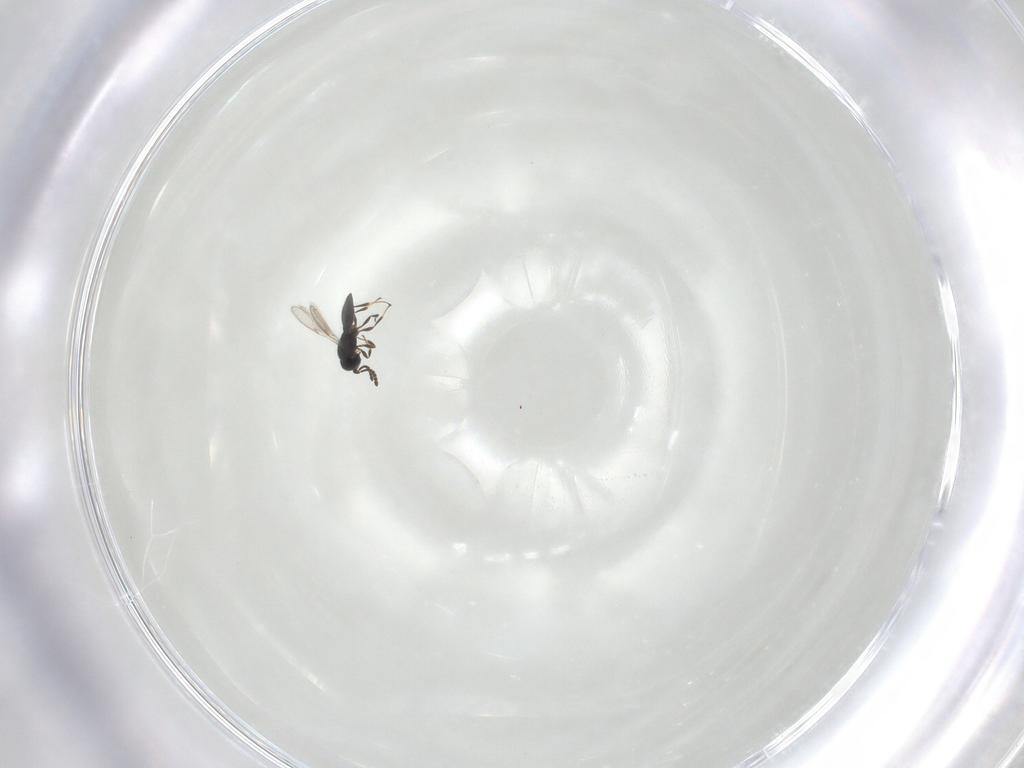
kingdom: Animalia
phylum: Arthropoda
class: Insecta
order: Hymenoptera
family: Figitidae
